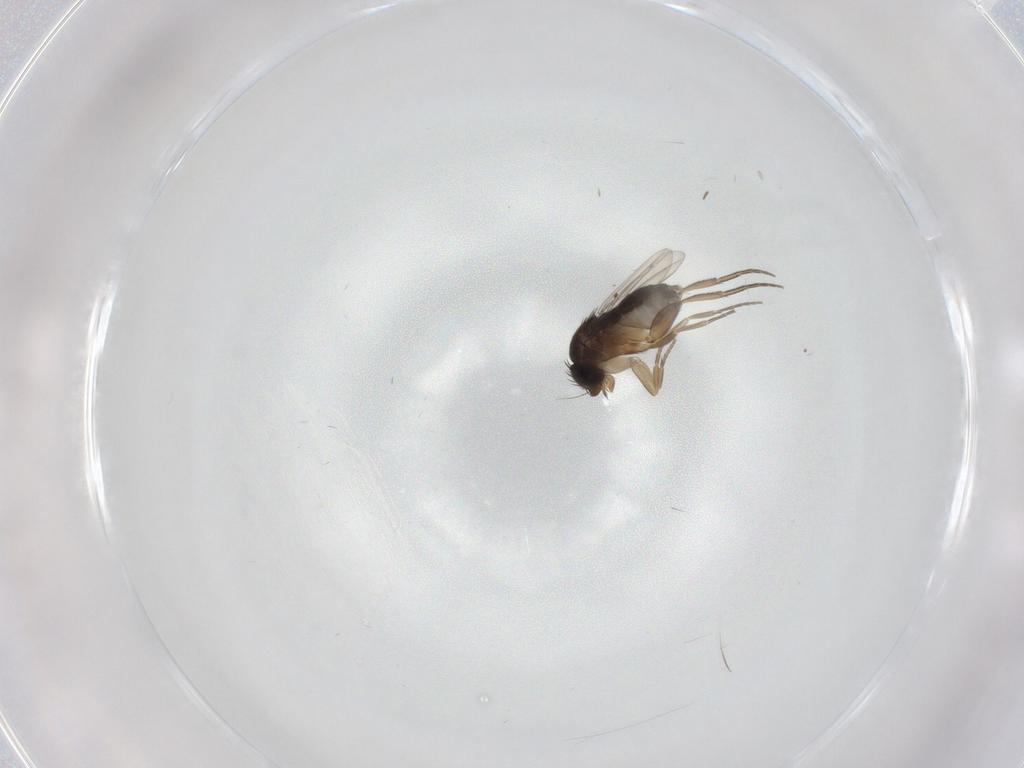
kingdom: Animalia
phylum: Arthropoda
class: Insecta
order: Diptera
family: Phoridae
